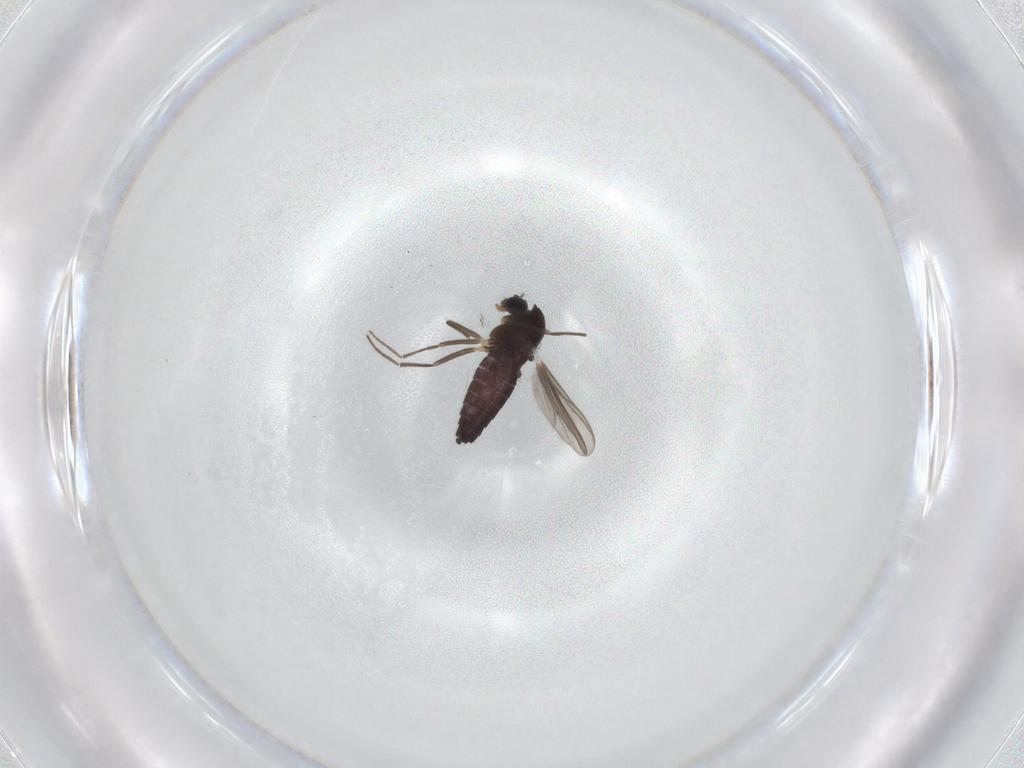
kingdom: Animalia
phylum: Arthropoda
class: Insecta
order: Diptera
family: Chironomidae
